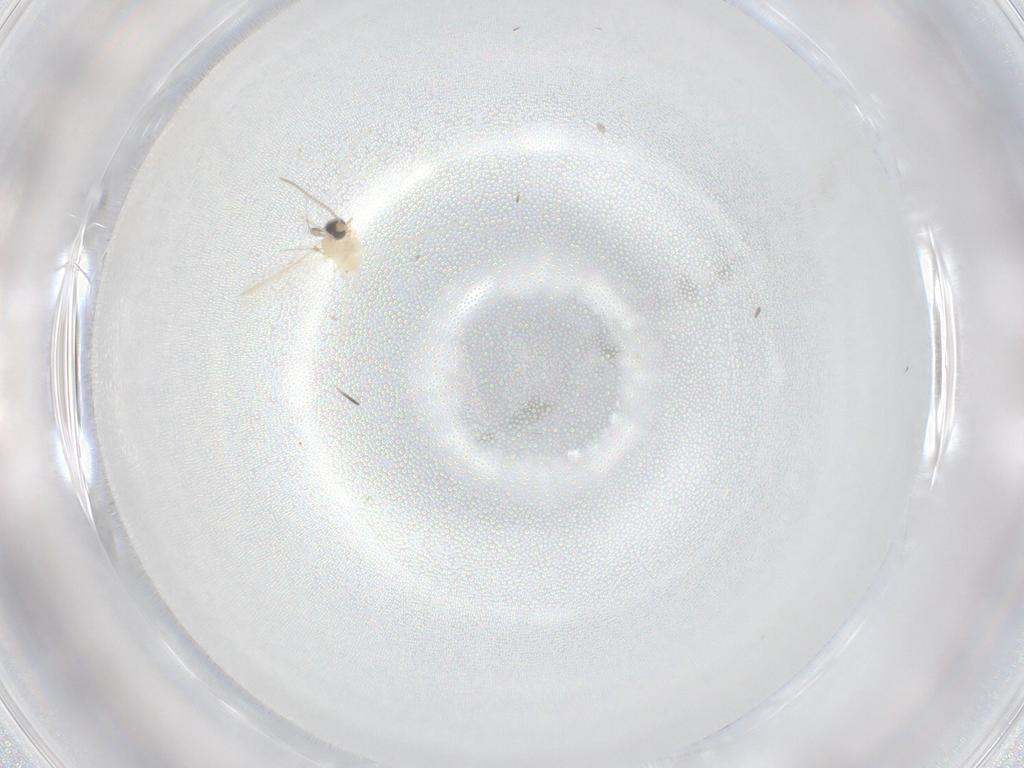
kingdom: Animalia
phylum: Arthropoda
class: Insecta
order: Diptera
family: Cecidomyiidae
